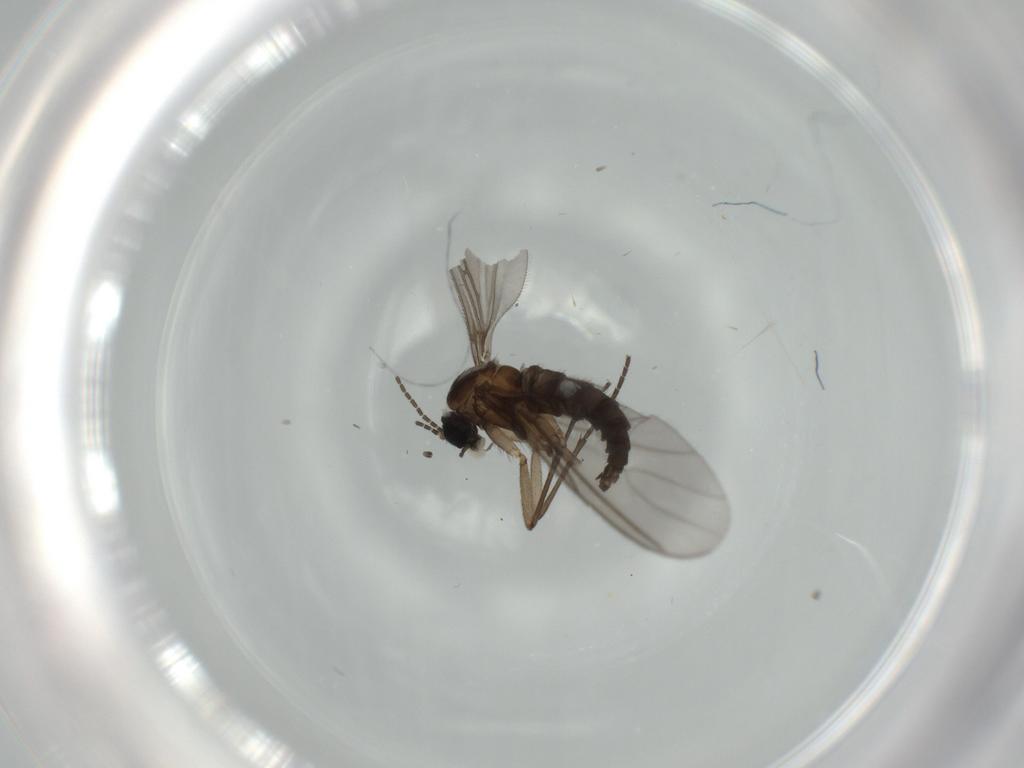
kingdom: Animalia
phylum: Arthropoda
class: Insecta
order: Diptera
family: Sciaridae
